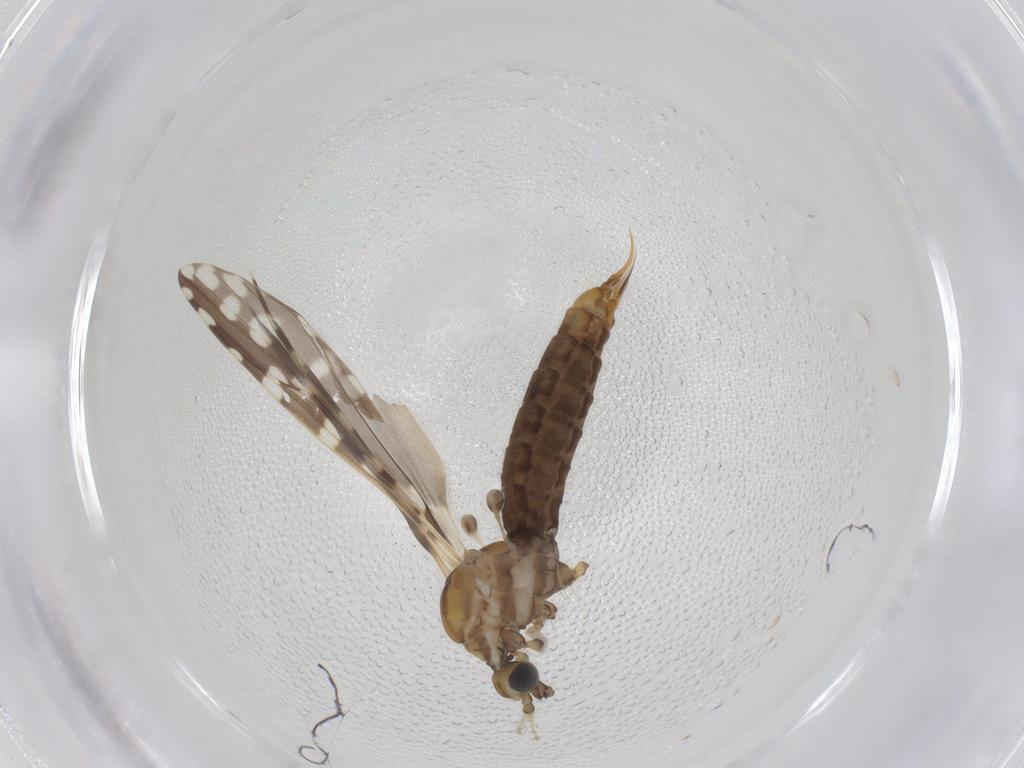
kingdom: Animalia
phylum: Arthropoda
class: Insecta
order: Diptera
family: Limoniidae
